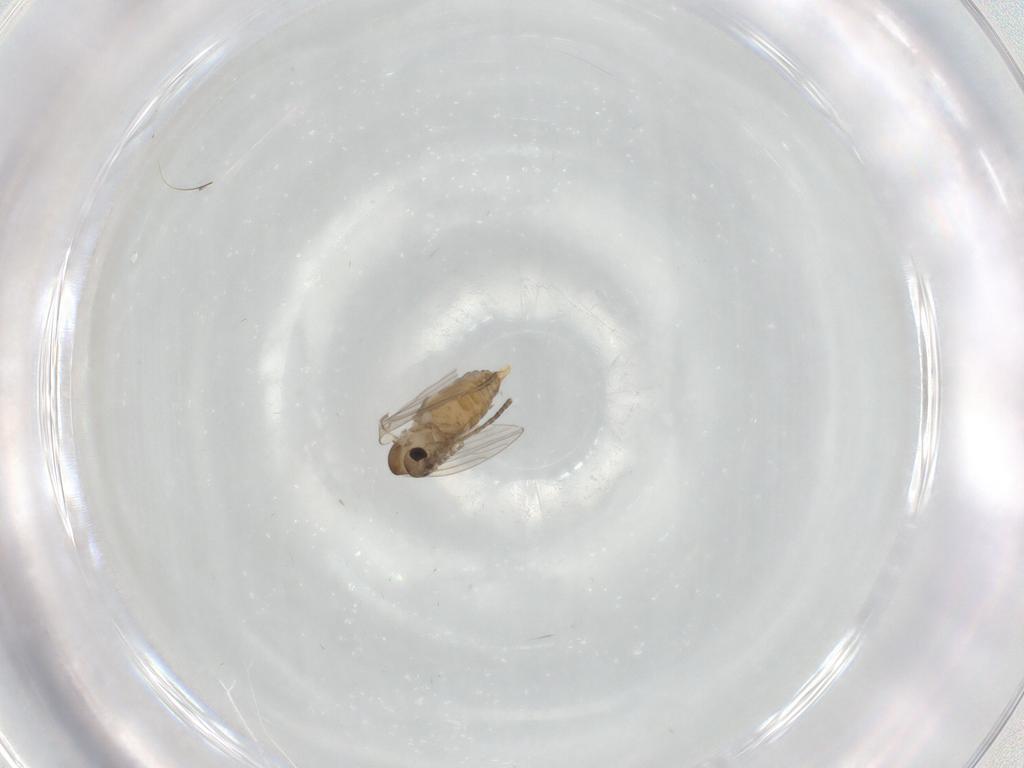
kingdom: Animalia
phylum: Arthropoda
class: Insecta
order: Diptera
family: Psychodidae
